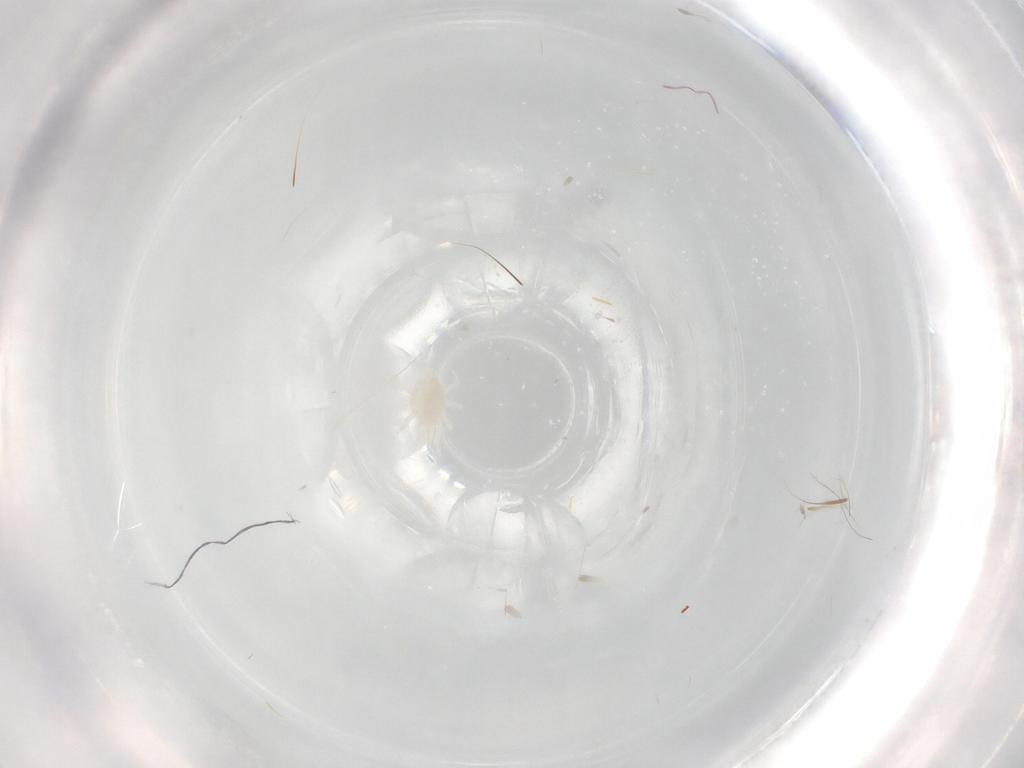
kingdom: Animalia
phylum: Arthropoda
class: Arachnida
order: Mesostigmata
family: Melicharidae
